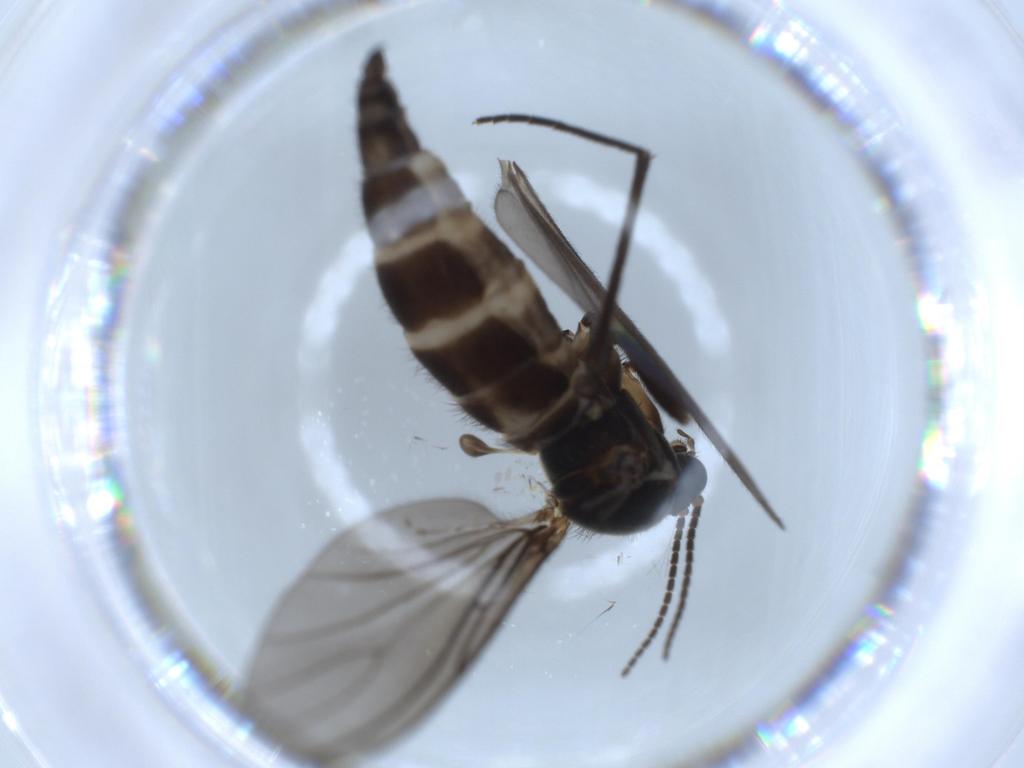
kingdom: Animalia
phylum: Arthropoda
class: Insecta
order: Diptera
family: Sciaridae
